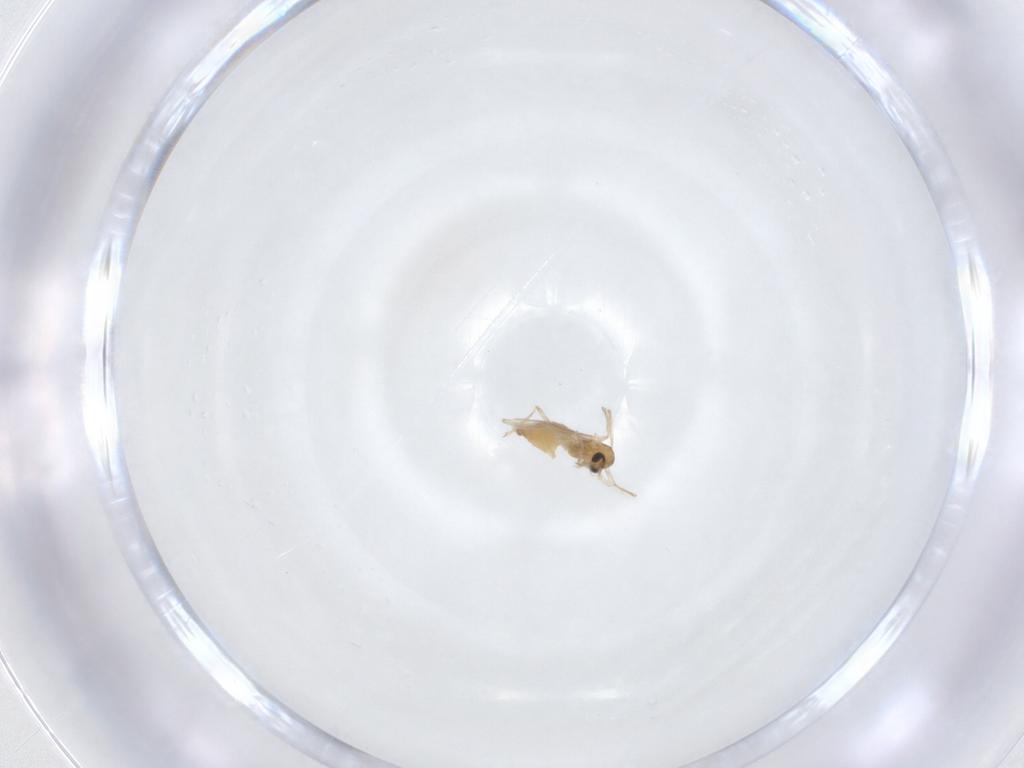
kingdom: Animalia
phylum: Arthropoda
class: Insecta
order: Diptera
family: Chironomidae
